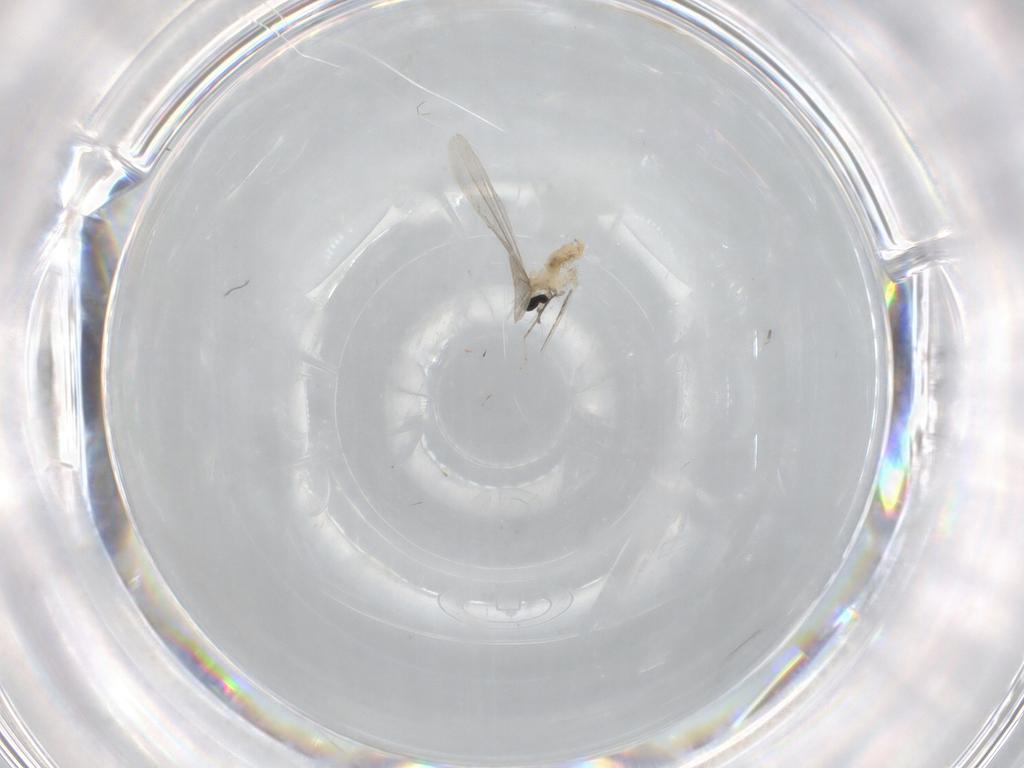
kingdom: Animalia
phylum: Arthropoda
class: Insecta
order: Diptera
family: Cecidomyiidae
